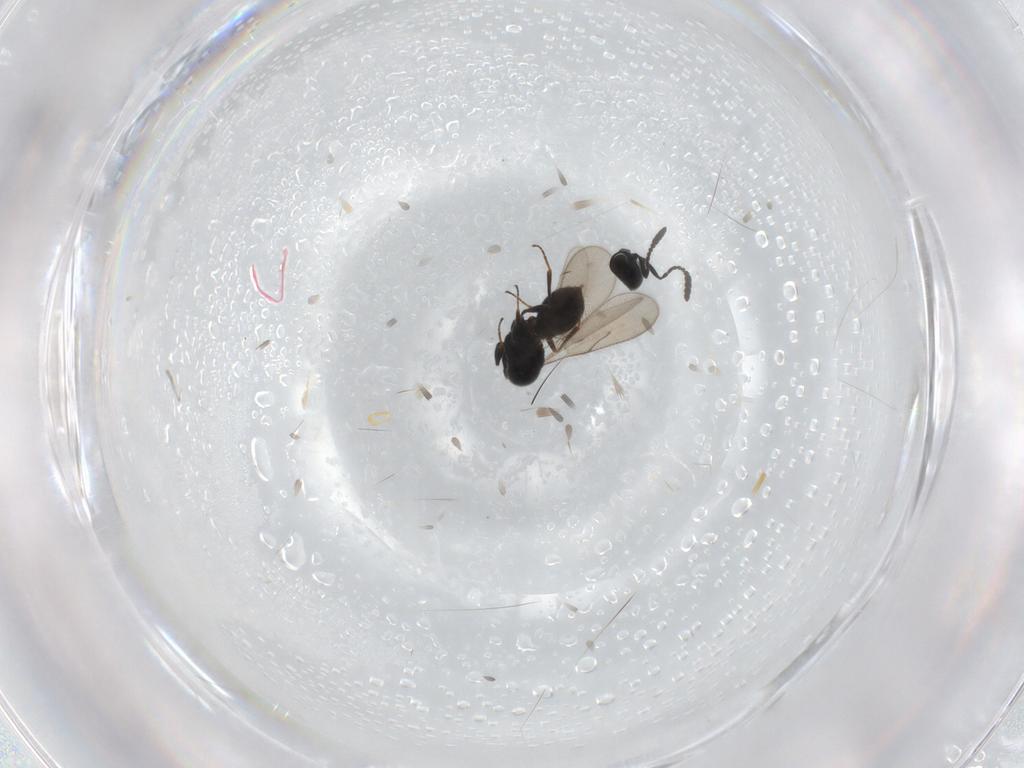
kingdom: Animalia
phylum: Arthropoda
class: Insecta
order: Hymenoptera
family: Scelionidae
